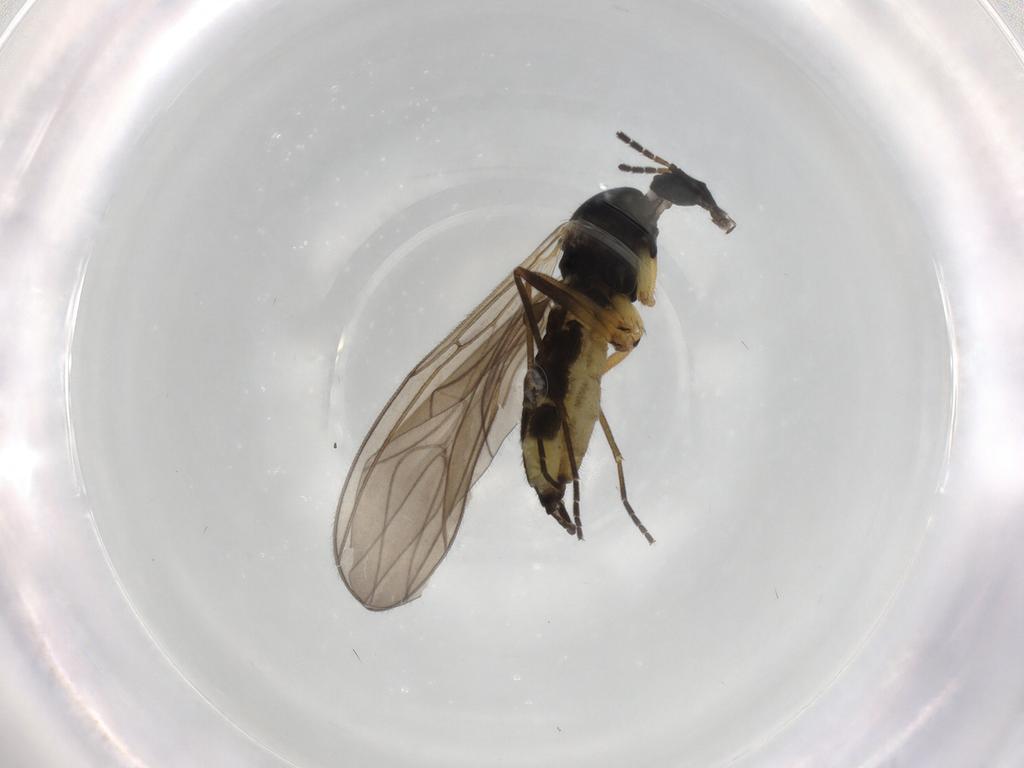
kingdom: Animalia
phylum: Arthropoda
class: Insecta
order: Diptera
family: Sciaridae
